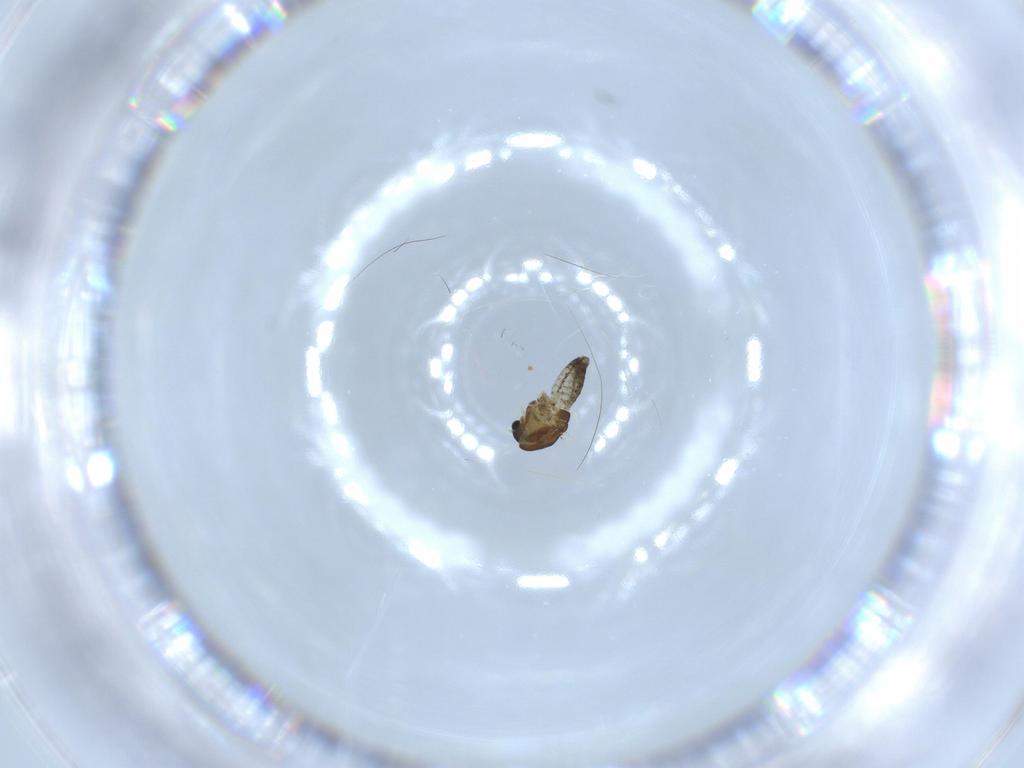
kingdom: Animalia
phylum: Arthropoda
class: Insecta
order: Diptera
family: Chironomidae
